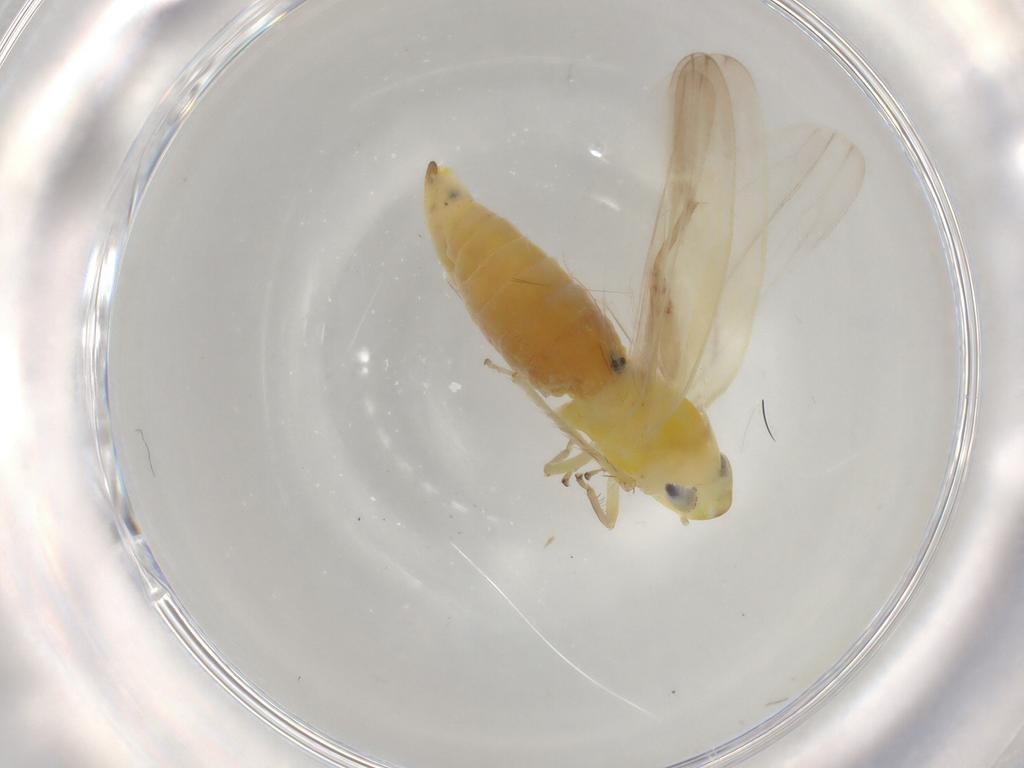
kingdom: Animalia
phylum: Arthropoda
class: Insecta
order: Hemiptera
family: Cicadellidae
